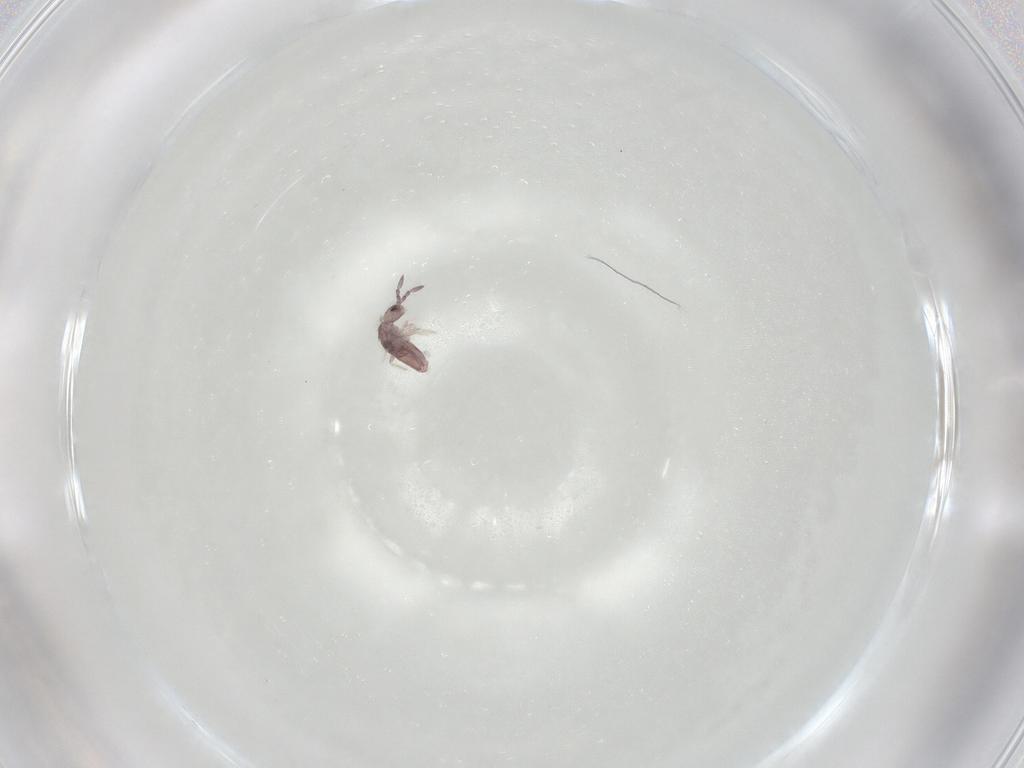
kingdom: Animalia
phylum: Arthropoda
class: Collembola
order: Entomobryomorpha
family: Entomobryidae
